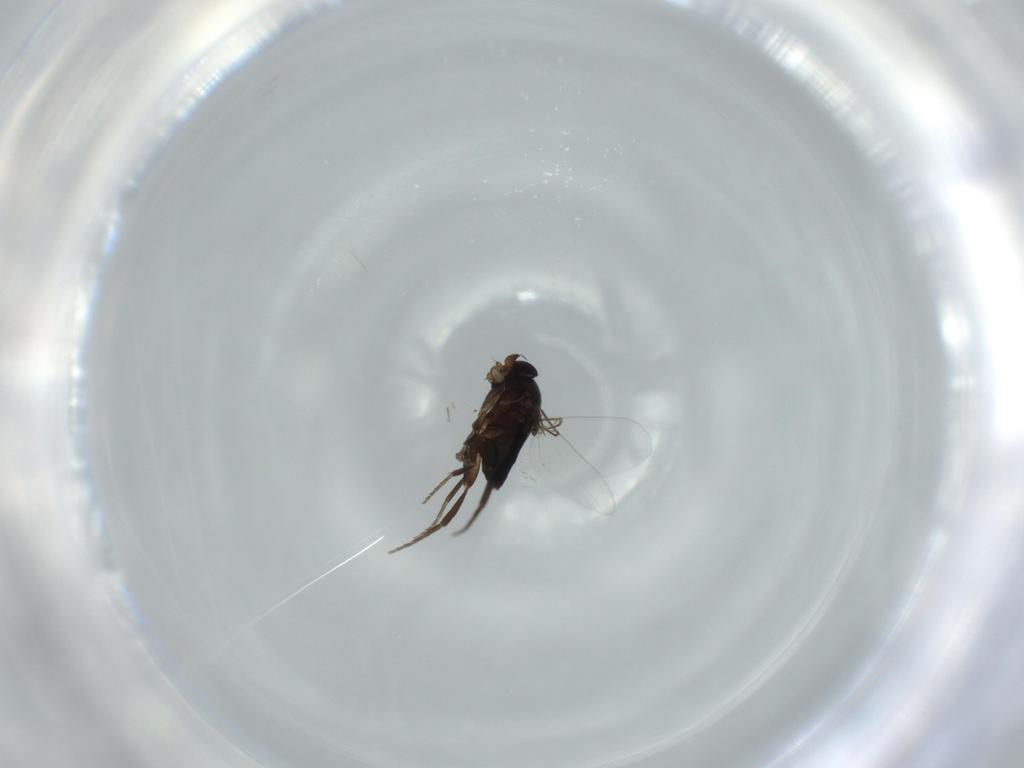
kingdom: Animalia
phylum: Arthropoda
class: Insecta
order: Diptera
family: Phoridae
